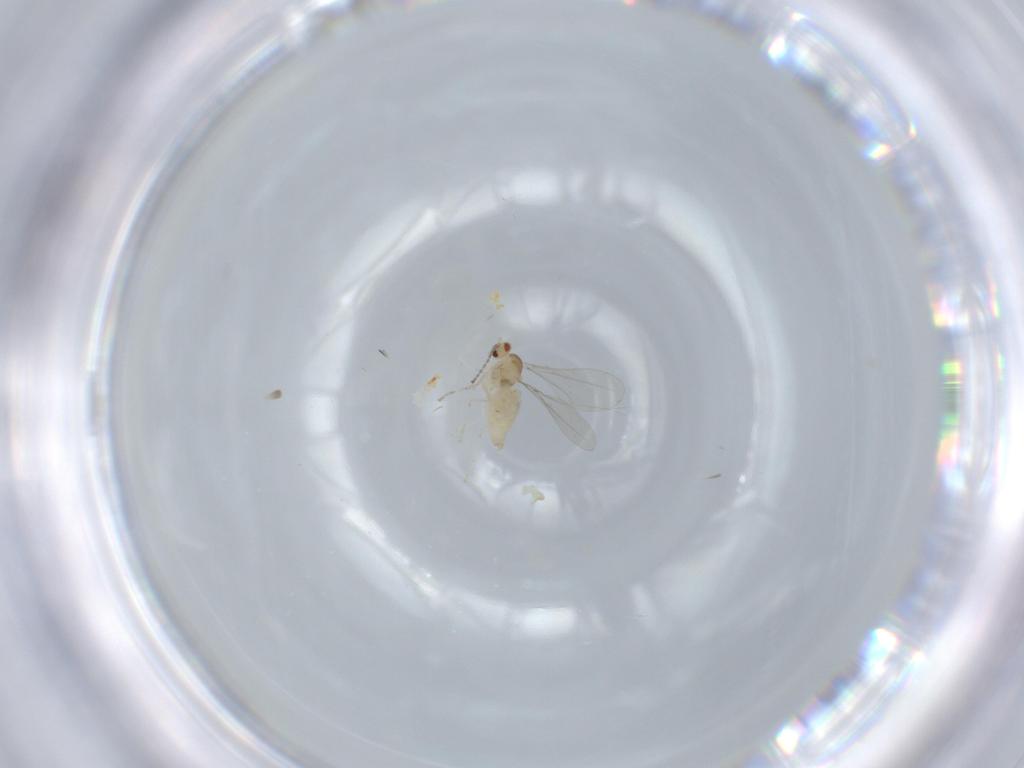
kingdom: Animalia
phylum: Arthropoda
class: Insecta
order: Diptera
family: Cecidomyiidae
